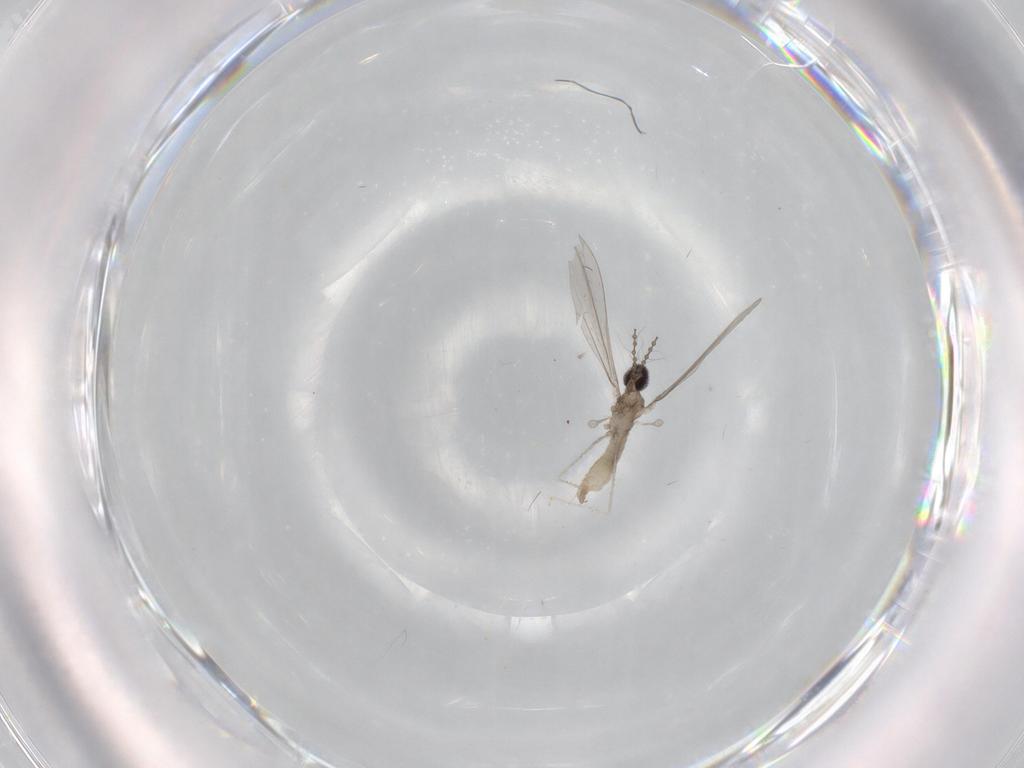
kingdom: Animalia
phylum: Arthropoda
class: Insecta
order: Diptera
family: Cecidomyiidae
